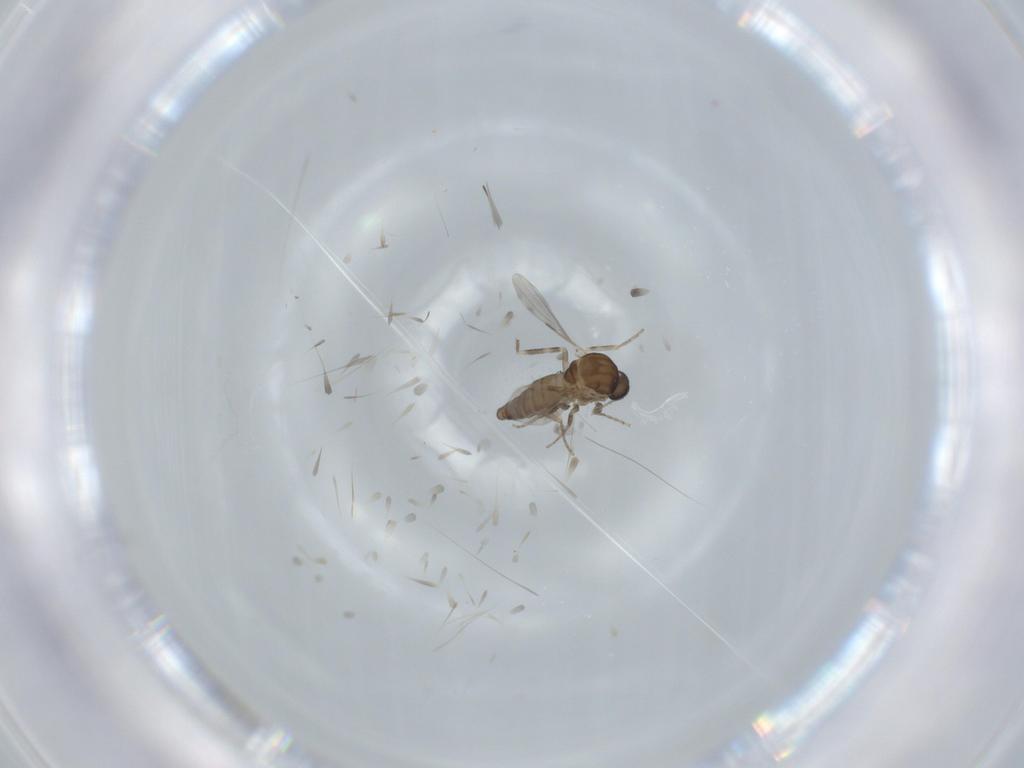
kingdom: Animalia
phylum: Arthropoda
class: Insecta
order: Diptera
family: Ceratopogonidae
